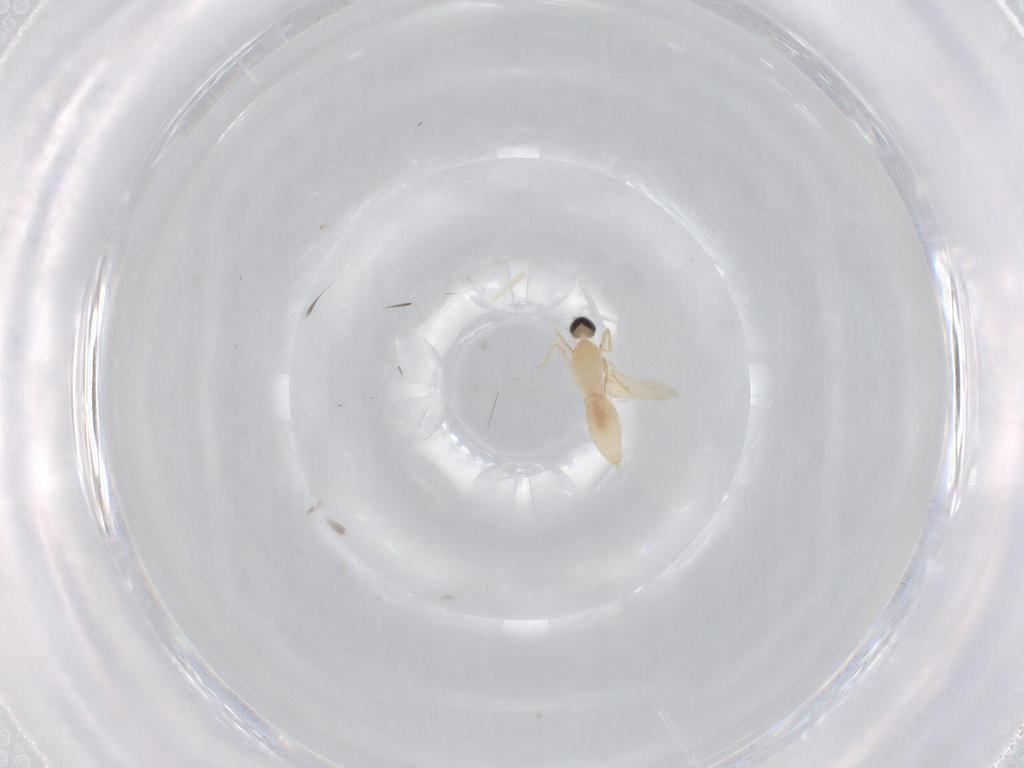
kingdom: Animalia
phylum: Arthropoda
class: Insecta
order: Diptera
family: Cecidomyiidae
